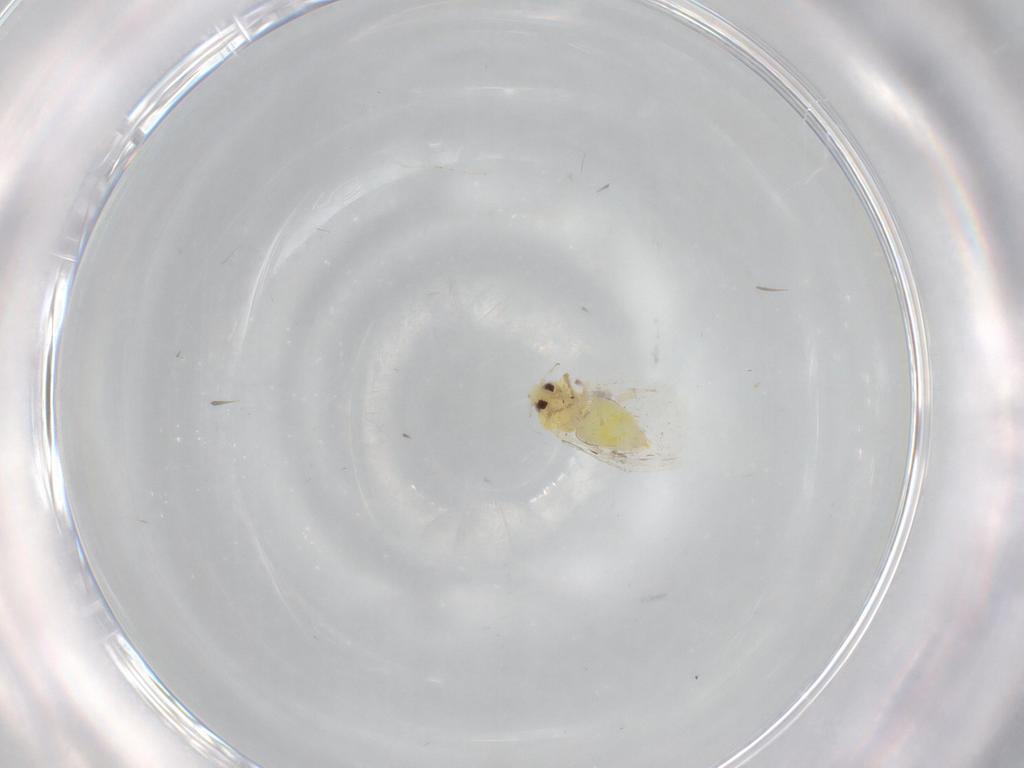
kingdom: Animalia
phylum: Arthropoda
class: Insecta
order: Hemiptera
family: Aleyrodidae
